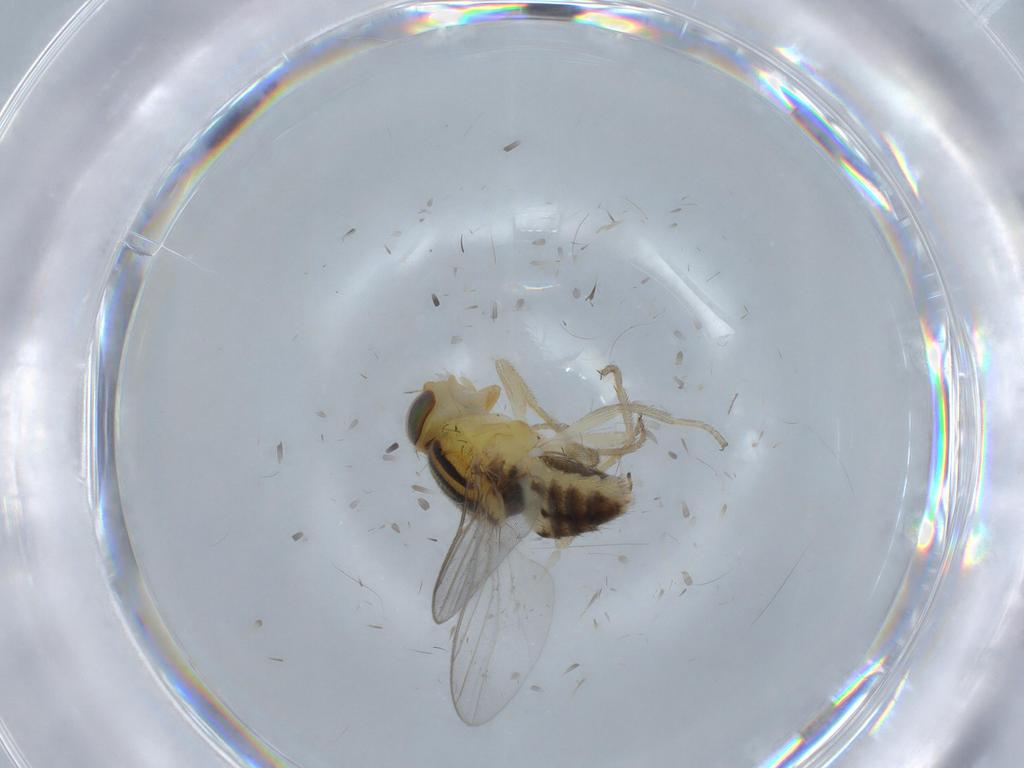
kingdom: Animalia
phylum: Arthropoda
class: Insecta
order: Diptera
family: Chloropidae
